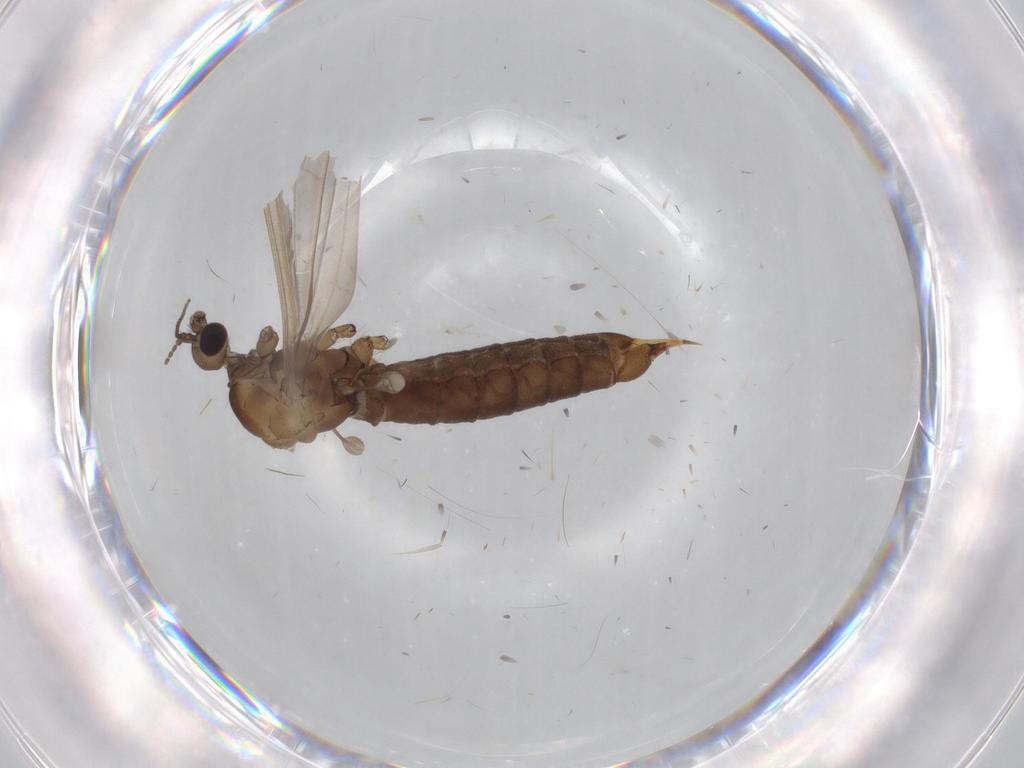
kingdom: Animalia
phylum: Arthropoda
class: Insecta
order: Diptera
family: Limoniidae
